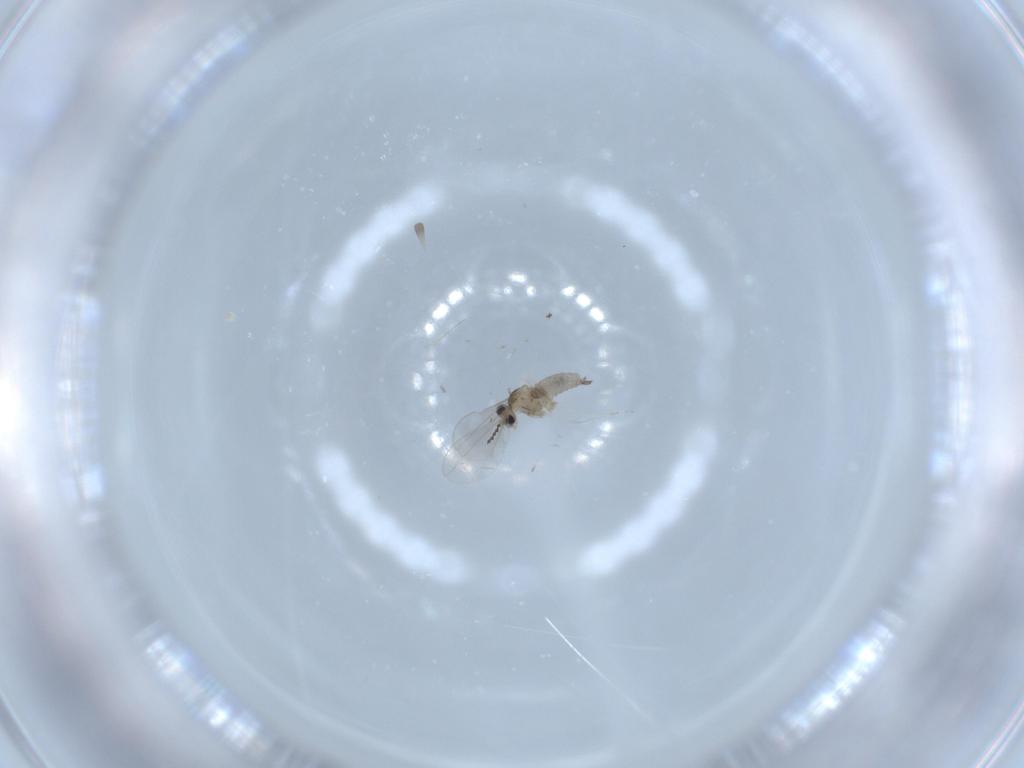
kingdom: Animalia
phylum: Arthropoda
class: Insecta
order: Diptera
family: Cecidomyiidae
